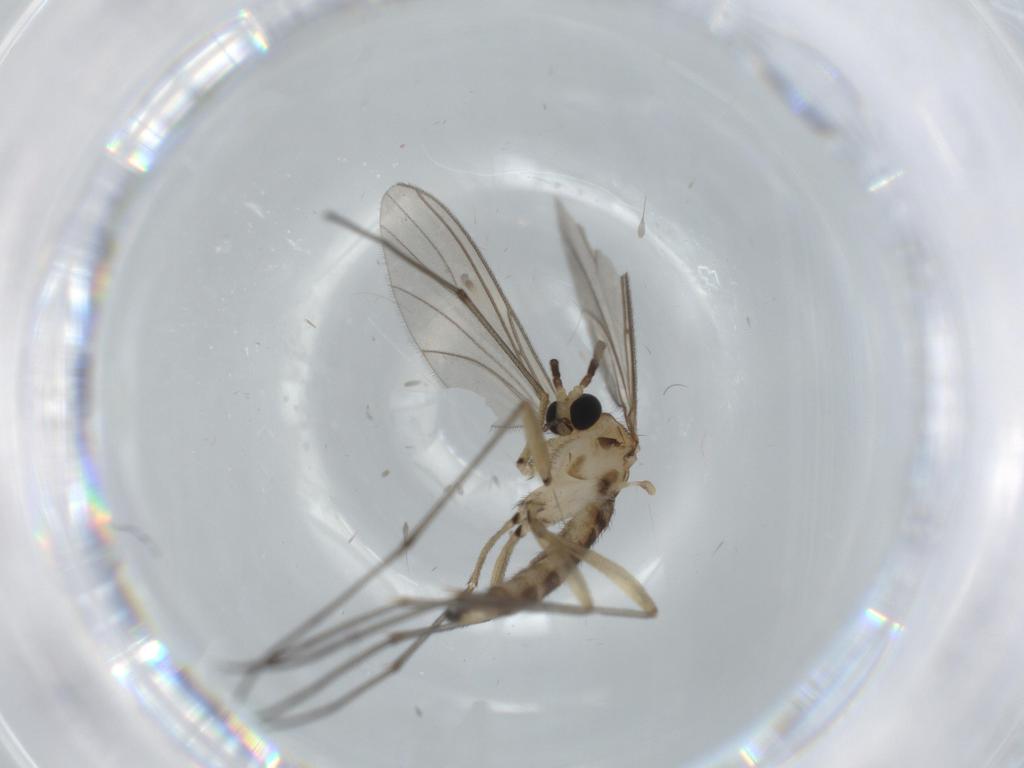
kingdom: Animalia
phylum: Arthropoda
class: Insecta
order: Diptera
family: Sciaridae
